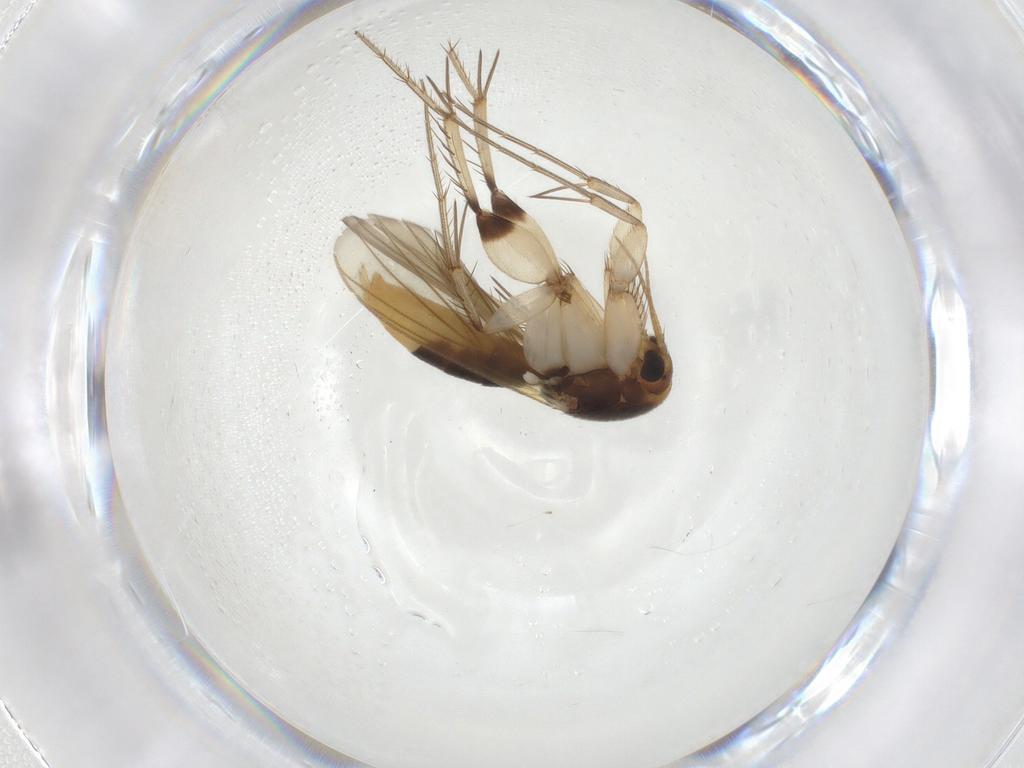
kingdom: Animalia
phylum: Arthropoda
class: Insecta
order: Diptera
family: Mycetophilidae
